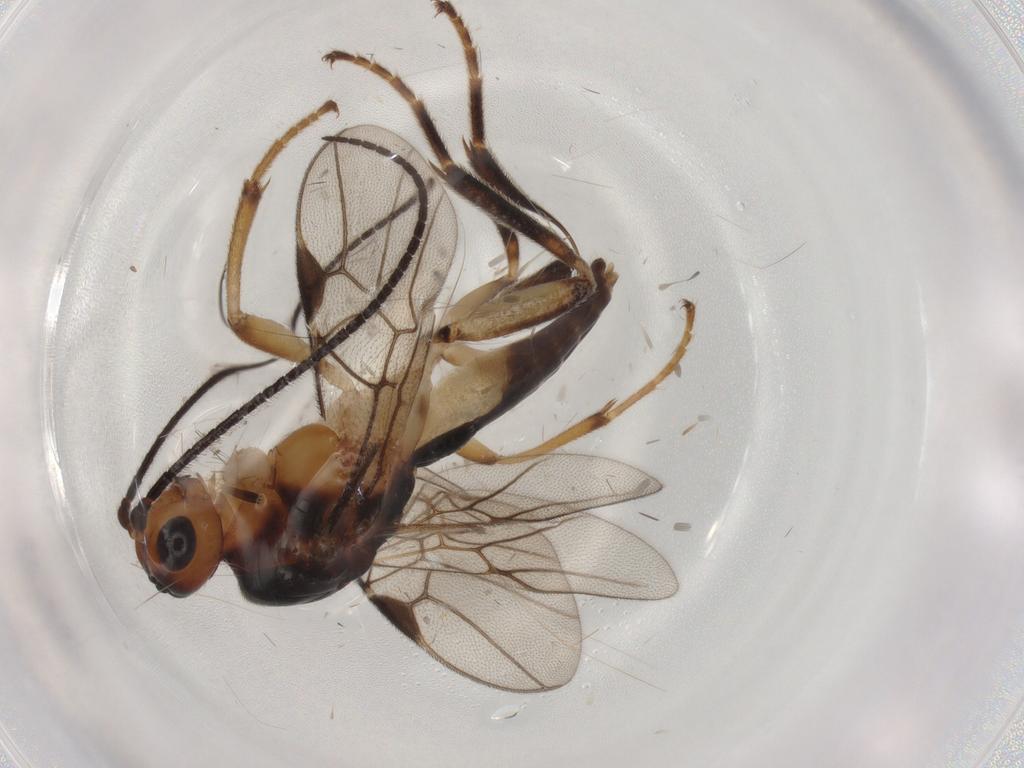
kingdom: Animalia
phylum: Arthropoda
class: Insecta
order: Hymenoptera
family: Braconidae
